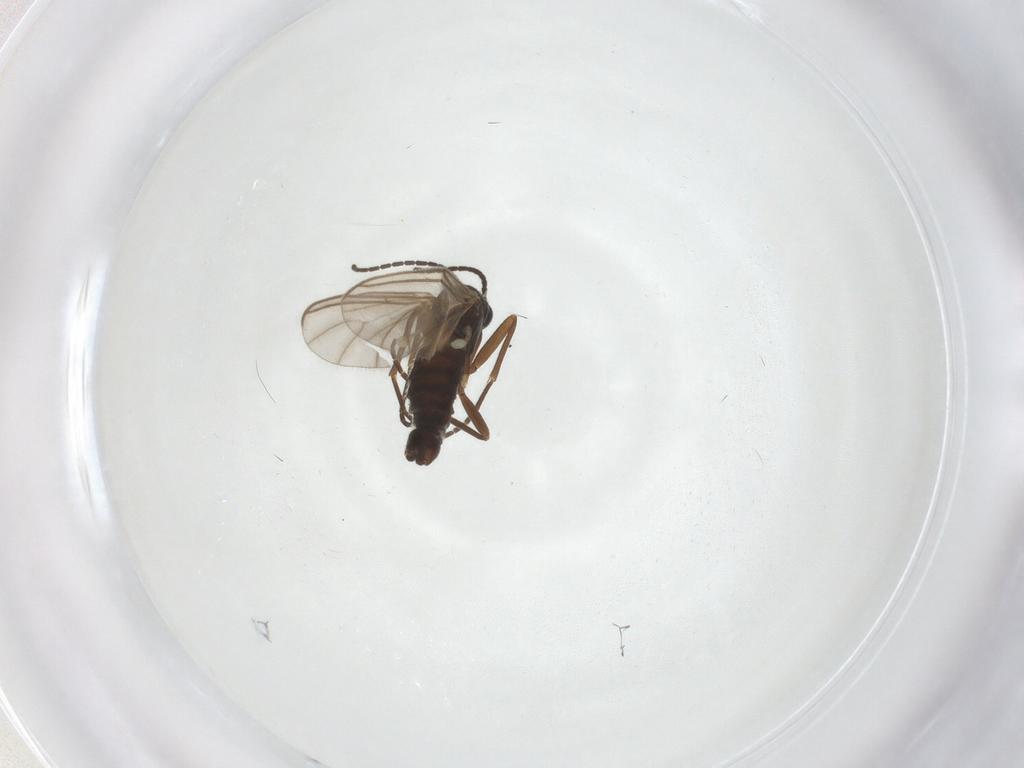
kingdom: Animalia
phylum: Arthropoda
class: Insecta
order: Diptera
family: Sciaridae
